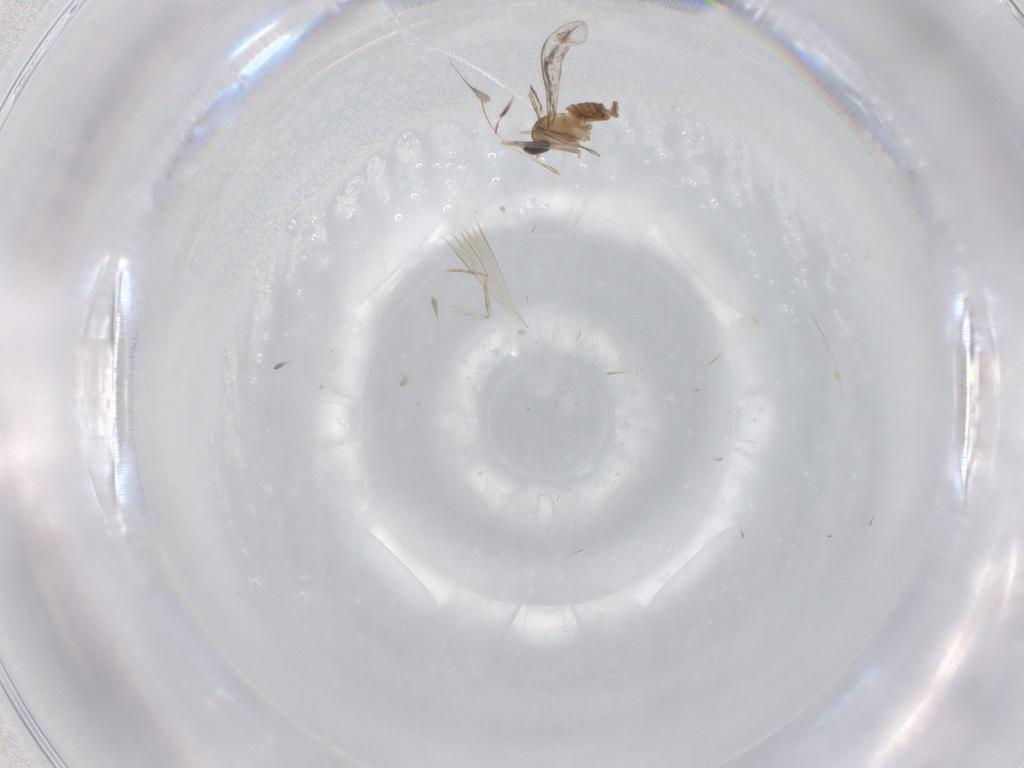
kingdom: Animalia
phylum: Arthropoda
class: Insecta
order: Diptera
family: Cecidomyiidae
